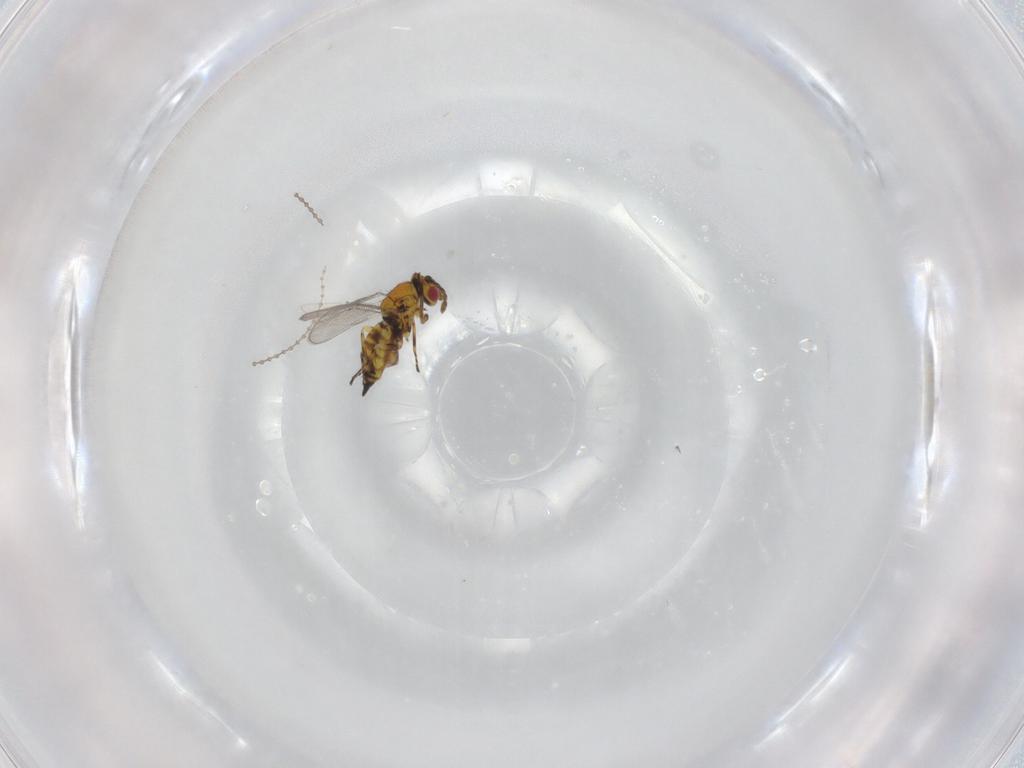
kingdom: Animalia
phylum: Arthropoda
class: Insecta
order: Hymenoptera
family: Eulophidae
